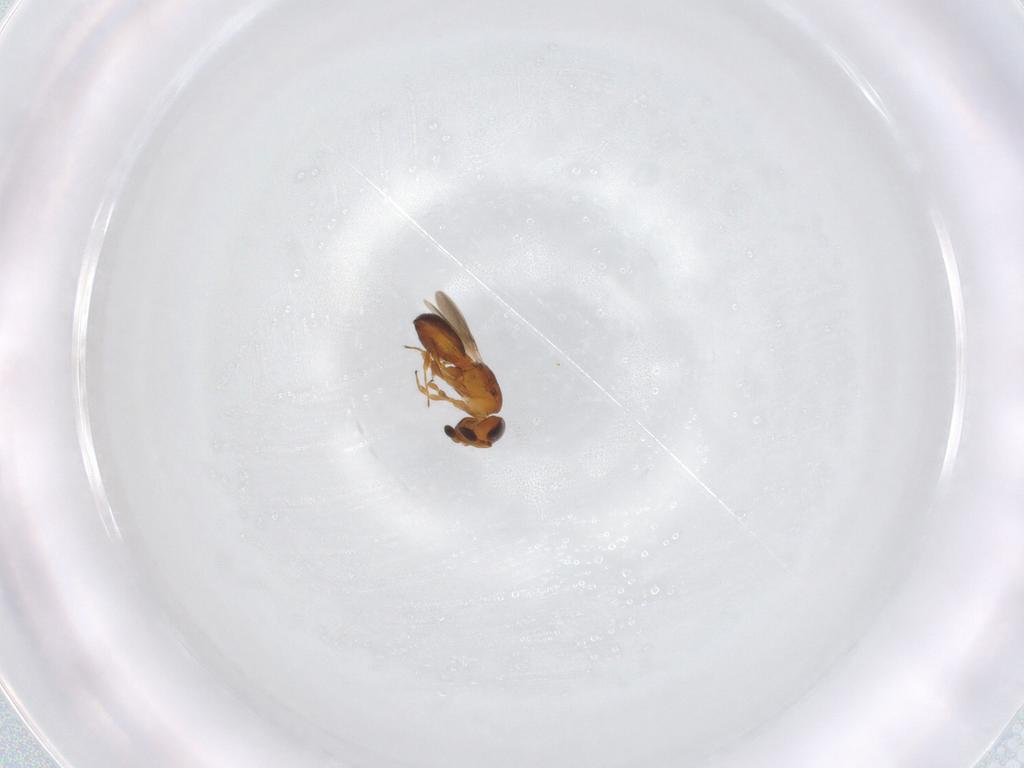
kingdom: Animalia
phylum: Arthropoda
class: Insecta
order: Hymenoptera
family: Scelionidae
